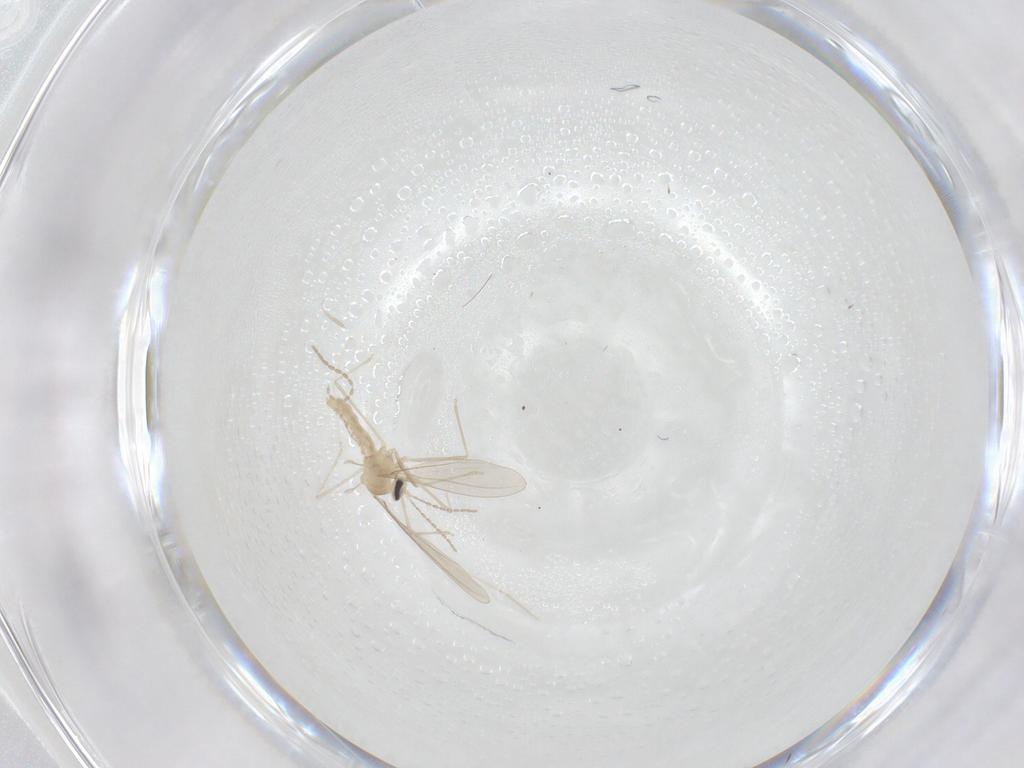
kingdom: Animalia
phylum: Arthropoda
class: Insecta
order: Diptera
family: Cecidomyiidae
